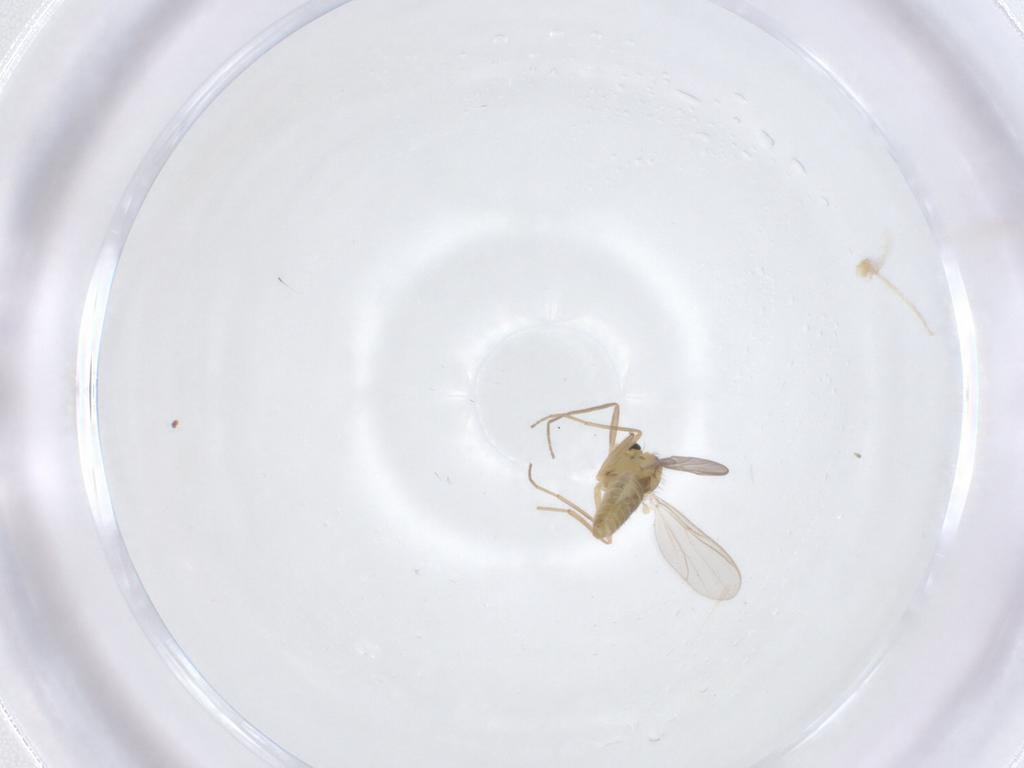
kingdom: Animalia
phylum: Arthropoda
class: Insecta
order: Diptera
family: Chironomidae
